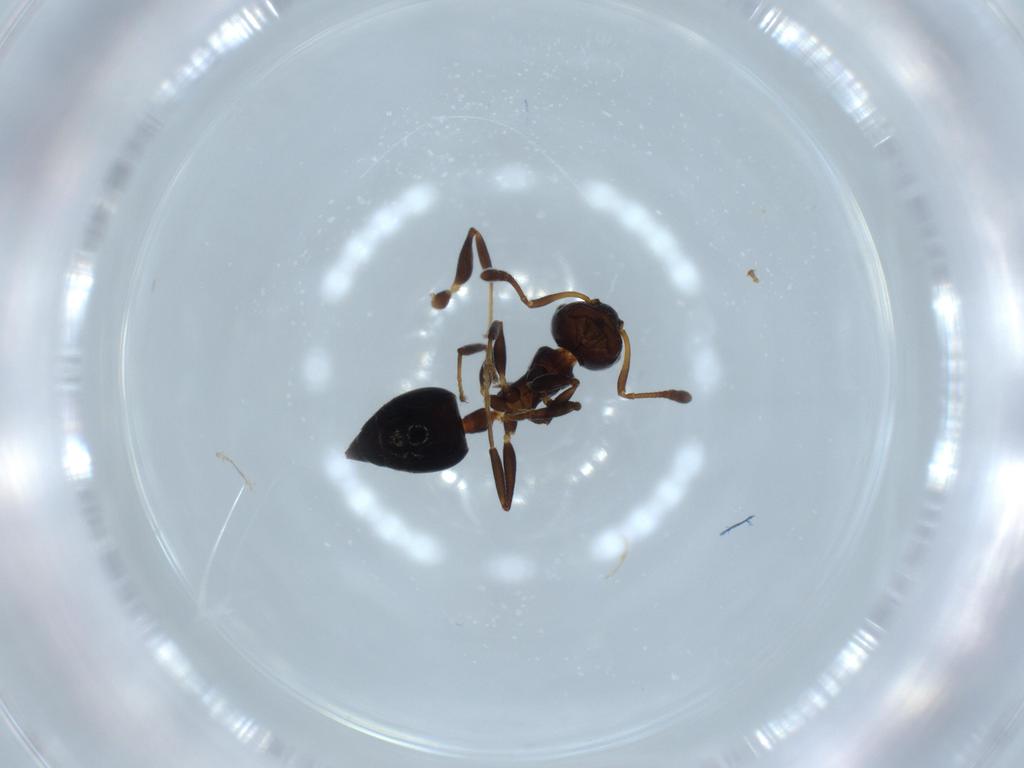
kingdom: Animalia
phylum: Arthropoda
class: Insecta
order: Hymenoptera
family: Formicidae
